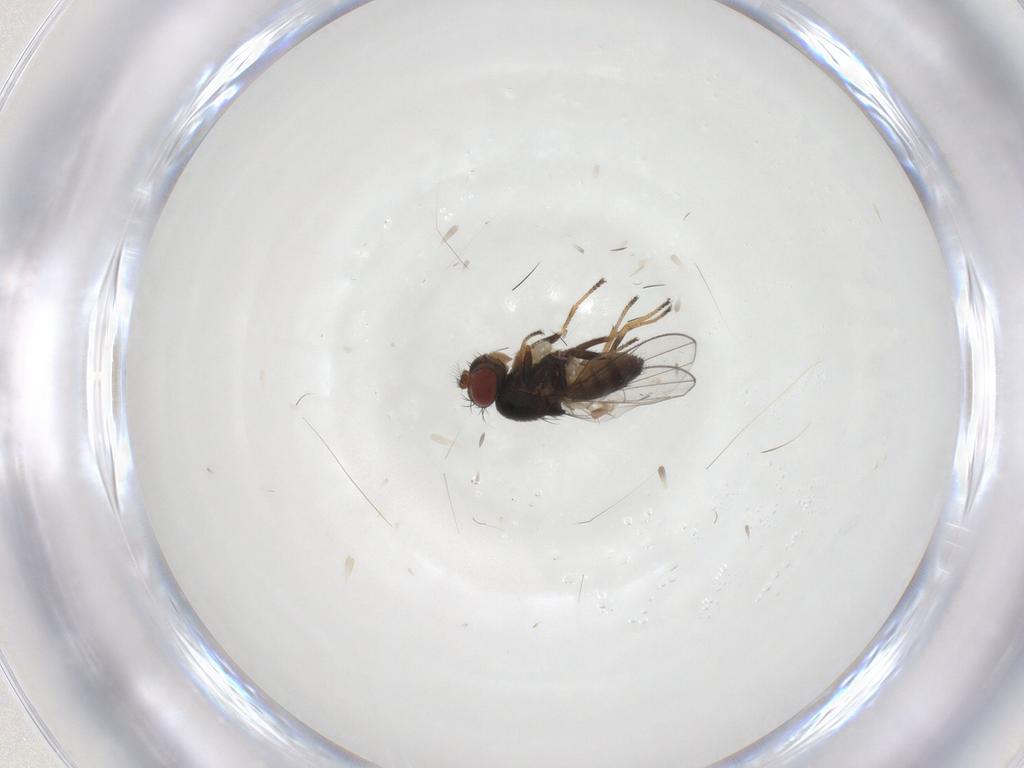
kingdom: Animalia
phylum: Arthropoda
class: Insecta
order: Diptera
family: Ephydridae
